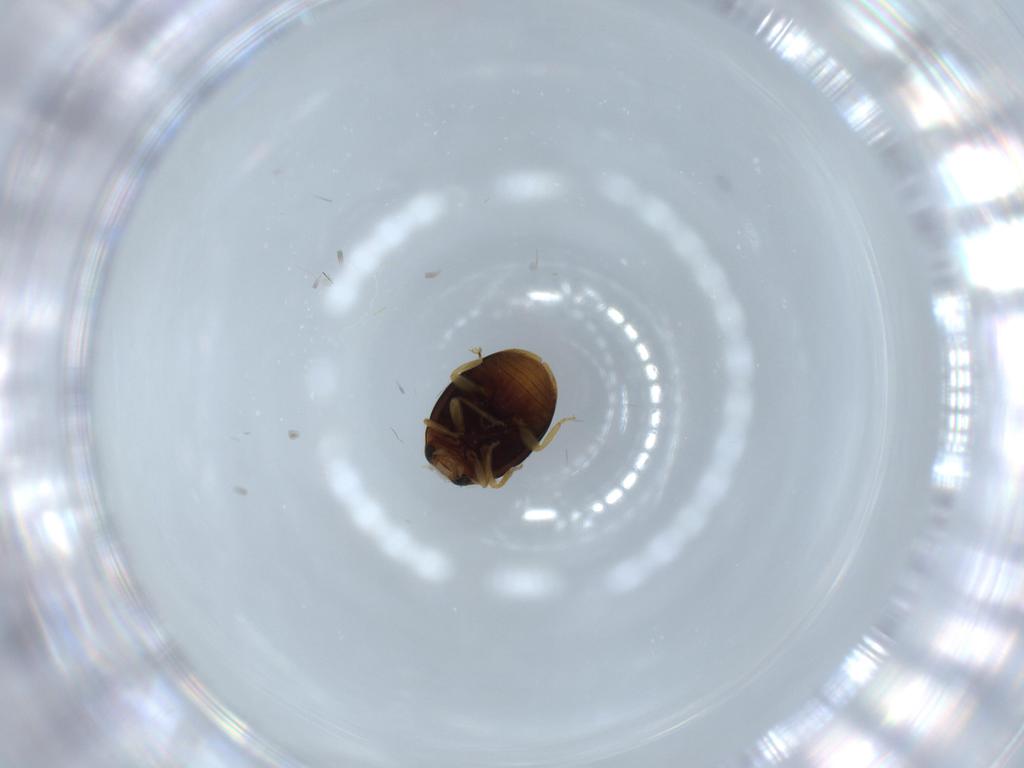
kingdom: Animalia
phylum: Arthropoda
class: Insecta
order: Coleoptera
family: Coccinellidae
